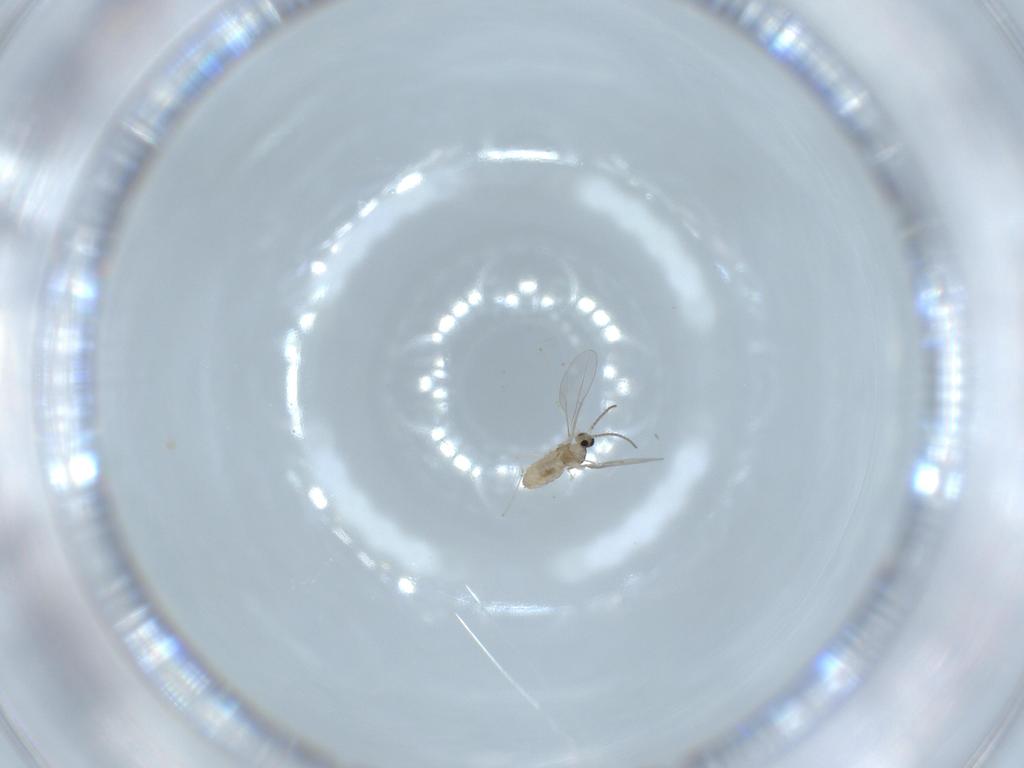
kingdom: Animalia
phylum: Arthropoda
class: Insecta
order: Diptera
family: Cecidomyiidae
